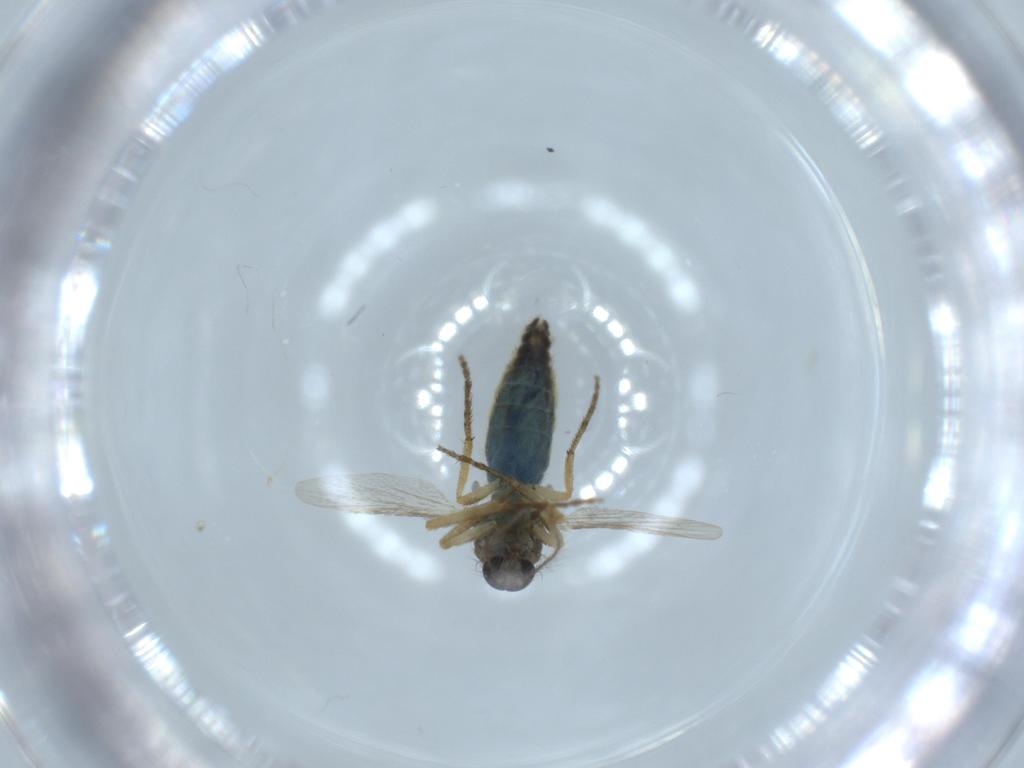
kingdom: Animalia
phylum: Arthropoda
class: Insecta
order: Diptera
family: Ceratopogonidae
